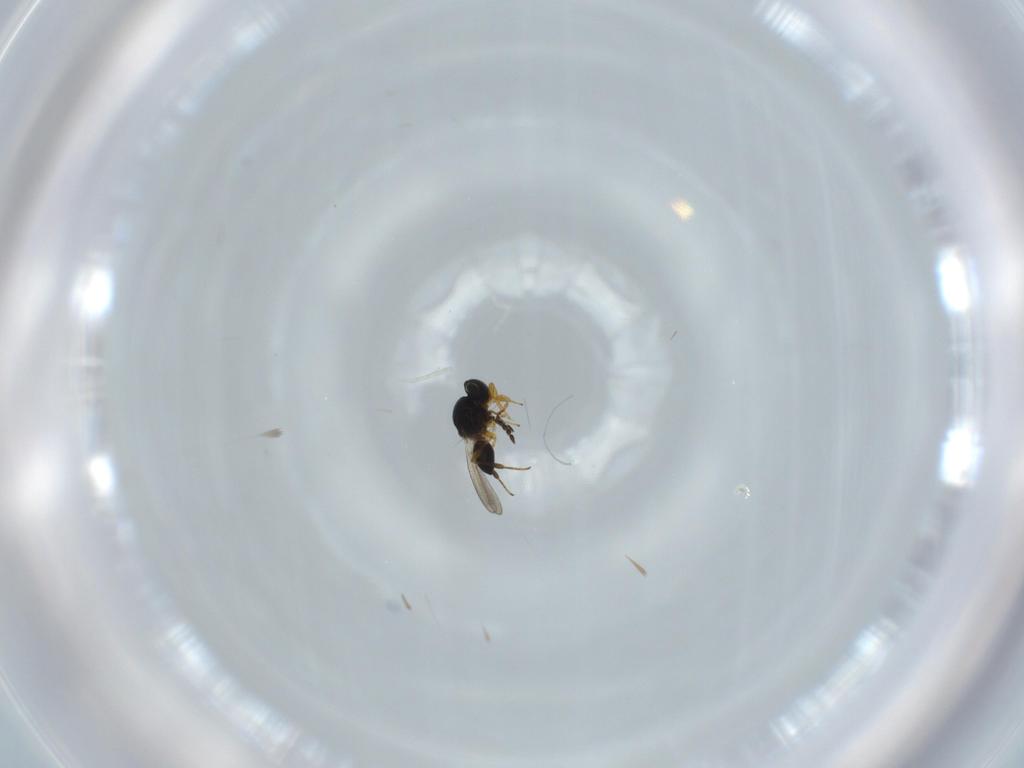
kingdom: Animalia
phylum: Arthropoda
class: Insecta
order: Hymenoptera
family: Platygastridae
